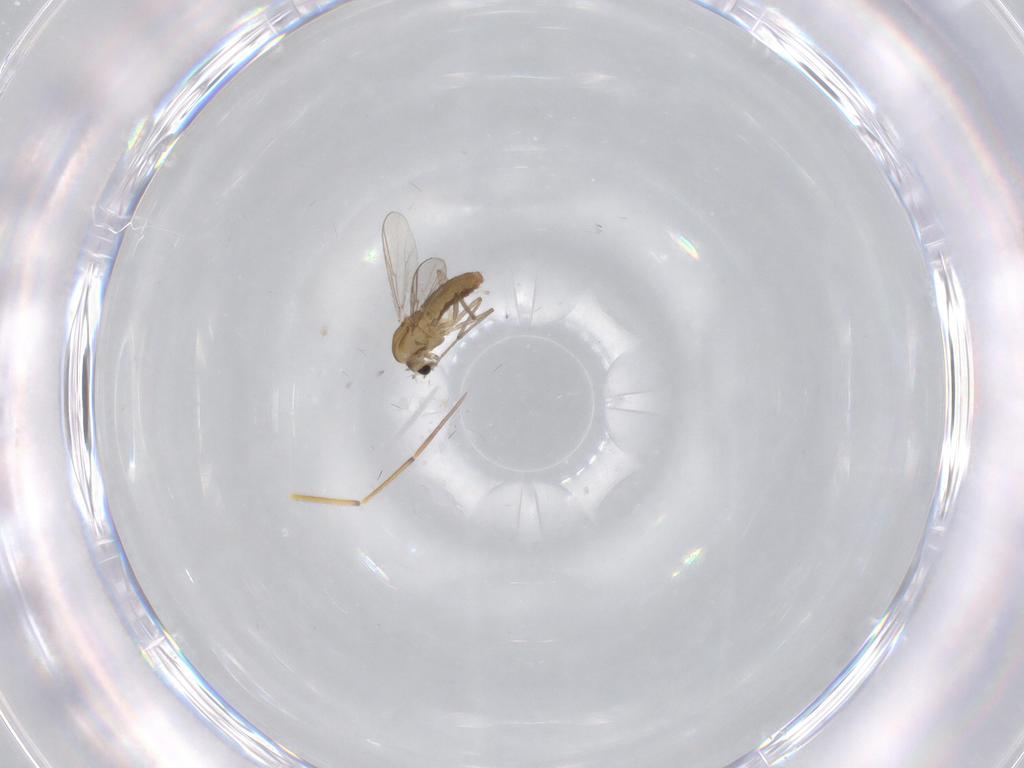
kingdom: Animalia
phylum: Arthropoda
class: Insecta
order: Diptera
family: Chironomidae
